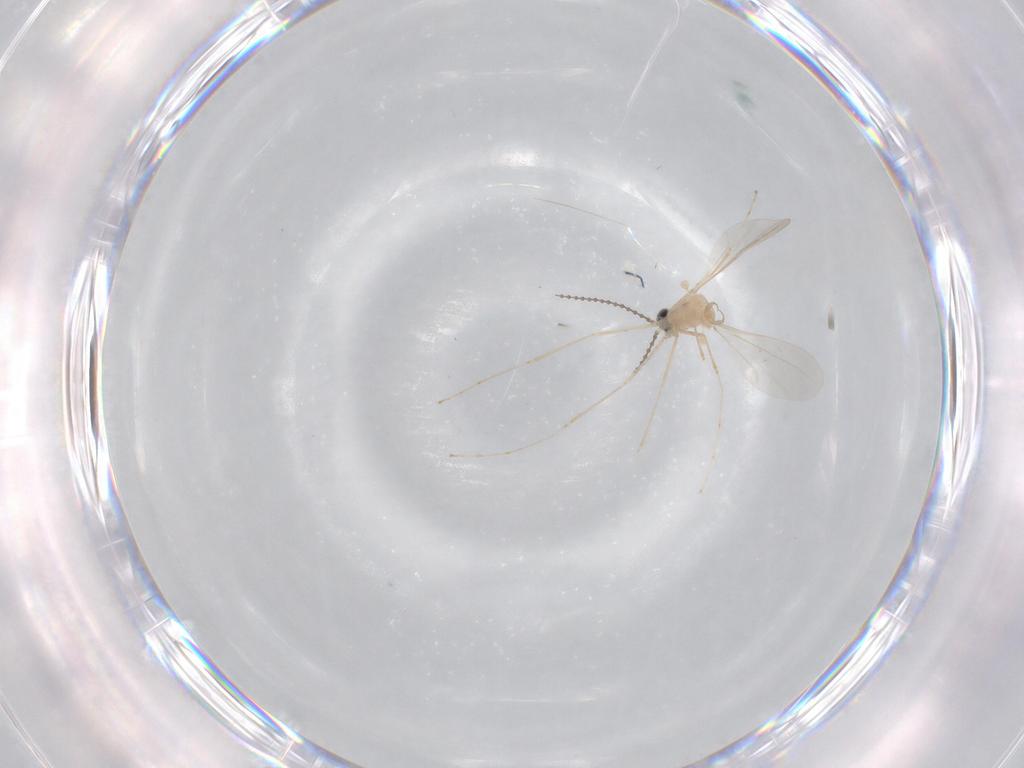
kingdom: Animalia
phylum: Arthropoda
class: Insecta
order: Diptera
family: Cecidomyiidae
